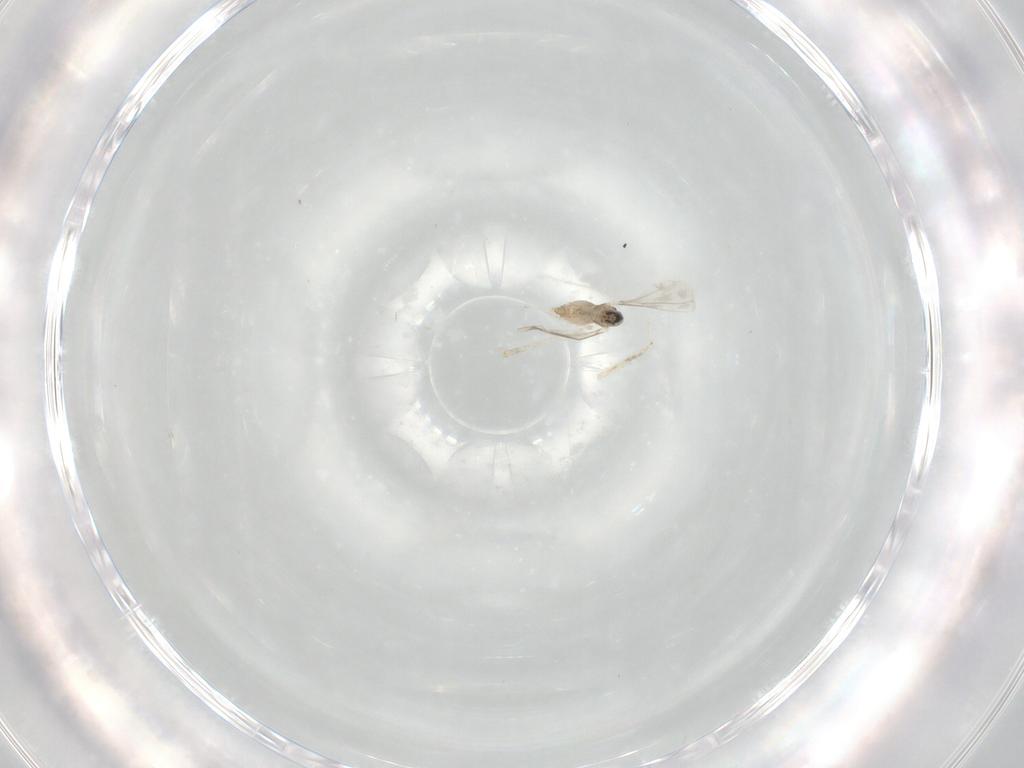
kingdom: Animalia
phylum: Arthropoda
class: Insecta
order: Diptera
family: Cecidomyiidae
